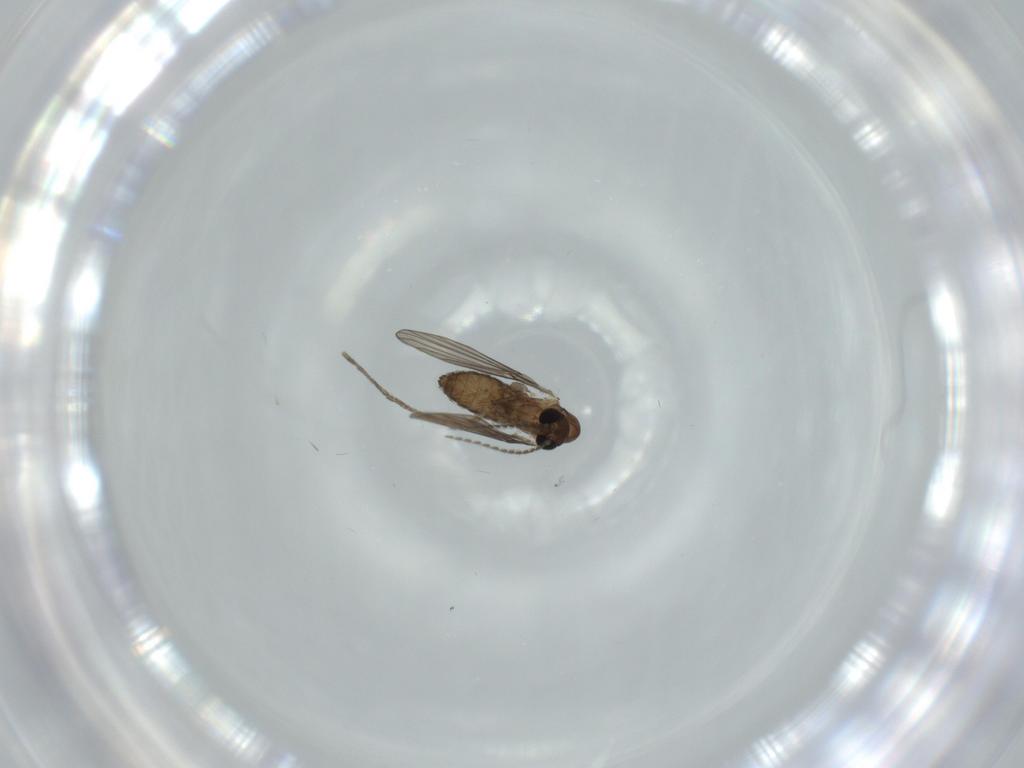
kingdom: Animalia
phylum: Arthropoda
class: Insecta
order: Diptera
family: Psychodidae
